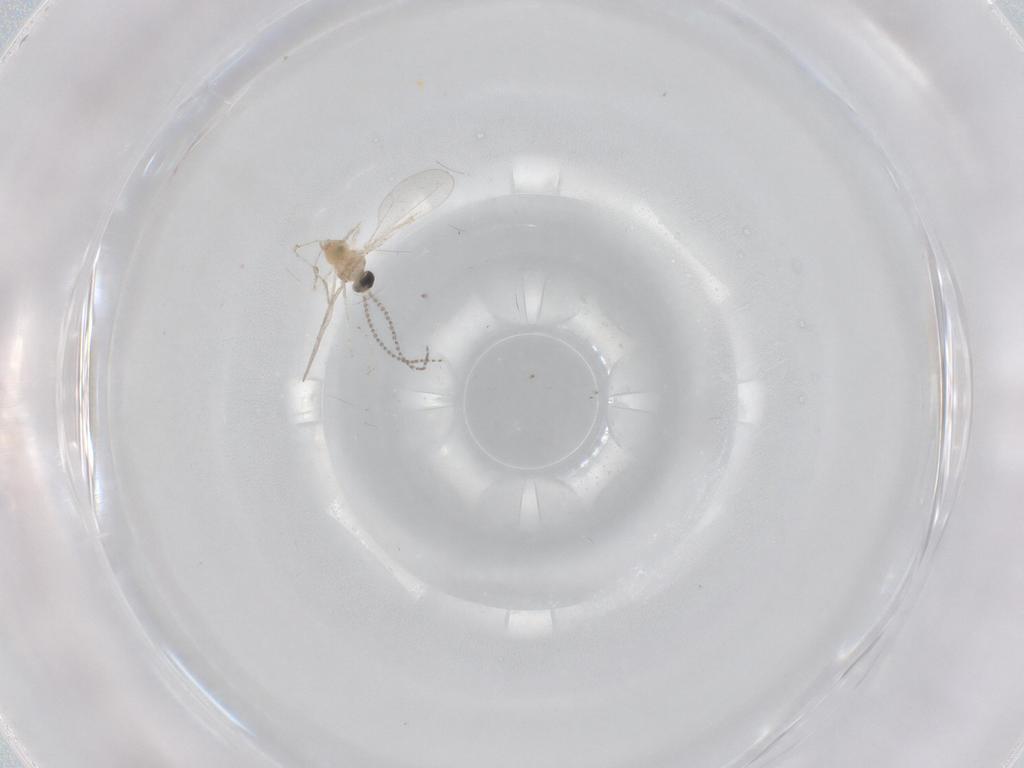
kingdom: Animalia
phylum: Arthropoda
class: Insecta
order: Diptera
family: Cecidomyiidae
